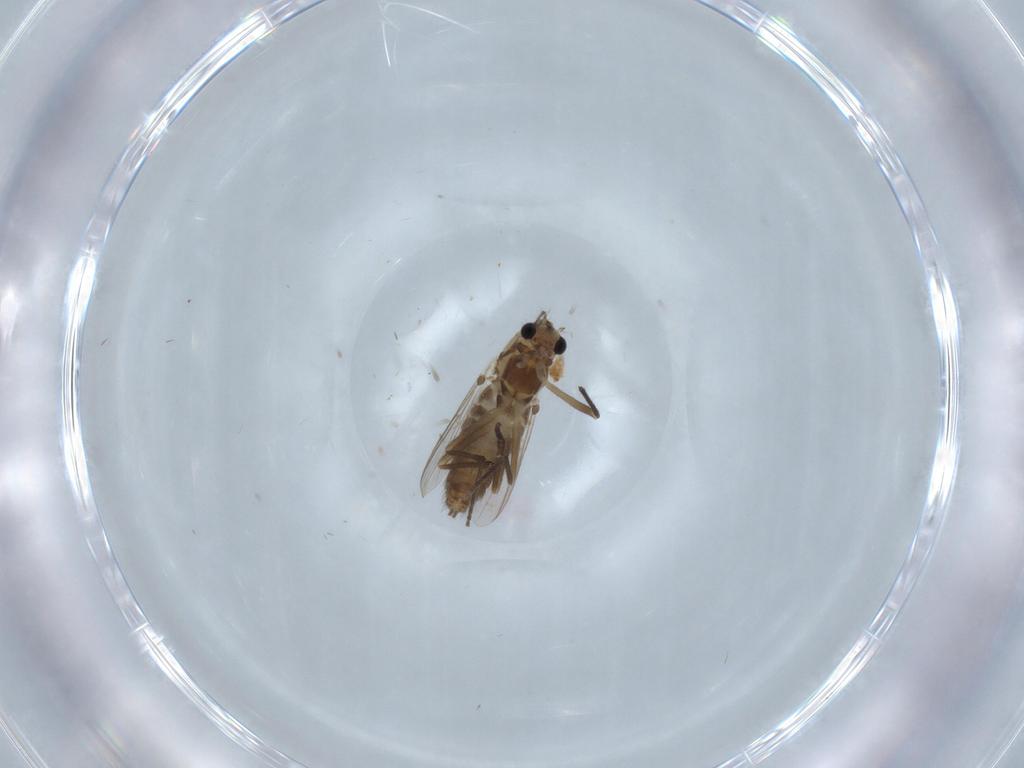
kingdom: Animalia
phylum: Arthropoda
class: Insecta
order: Diptera
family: Chironomidae
